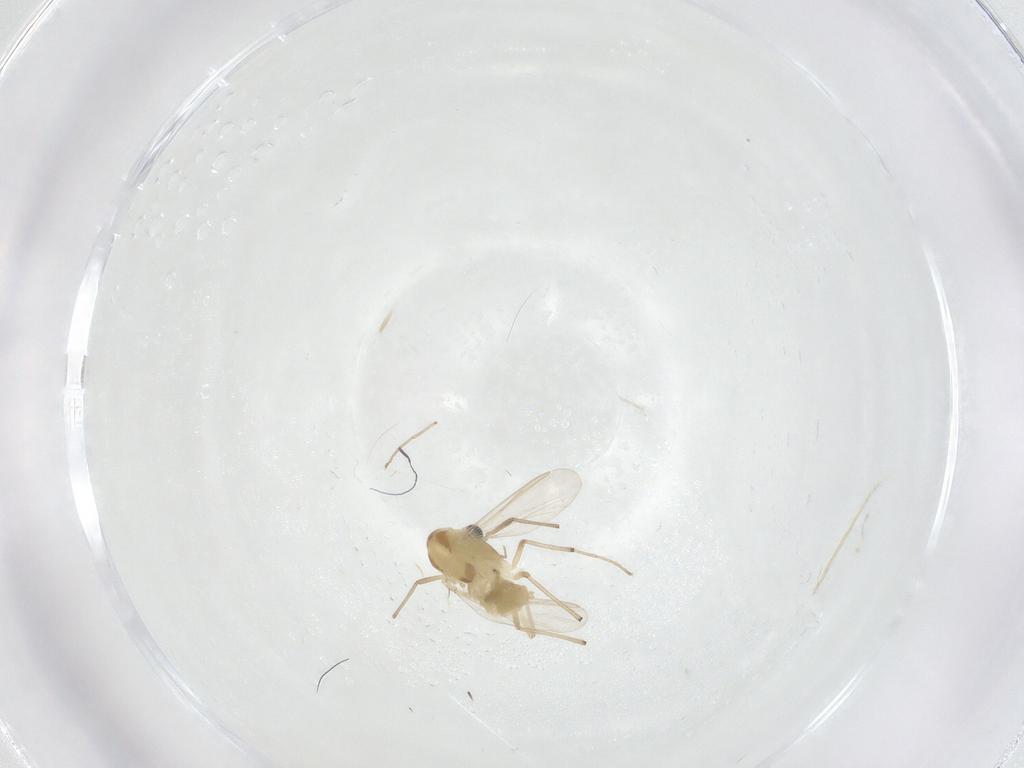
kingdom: Animalia
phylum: Arthropoda
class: Insecta
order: Diptera
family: Chironomidae
